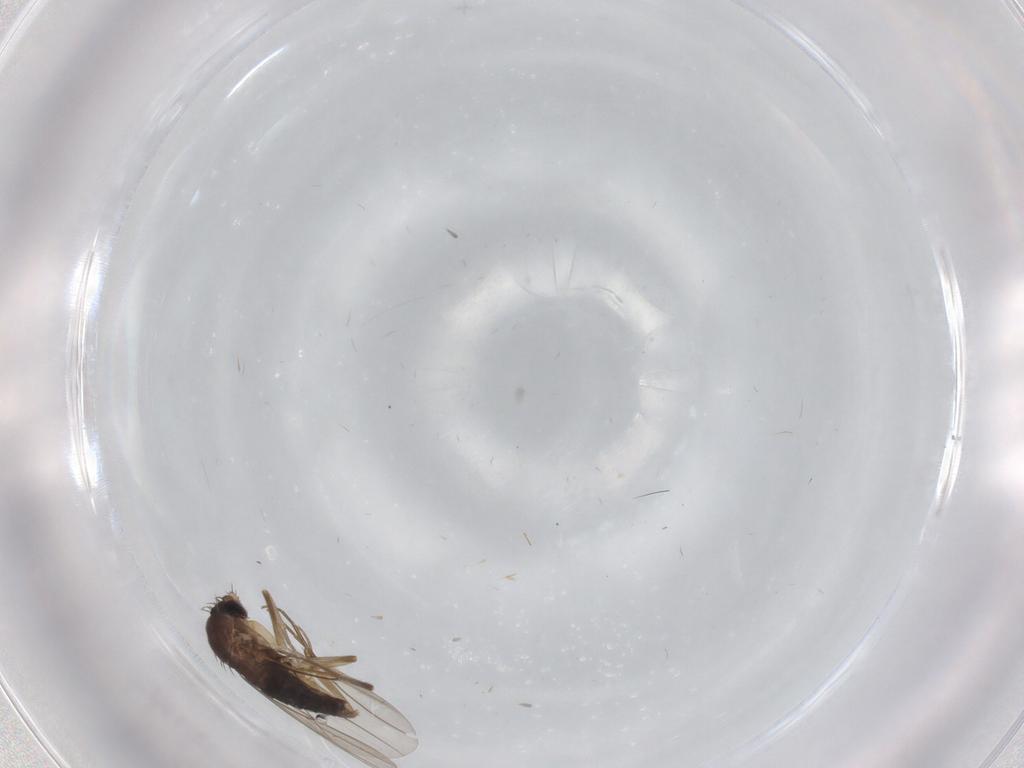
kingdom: Animalia
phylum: Arthropoda
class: Insecta
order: Diptera
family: Phoridae
